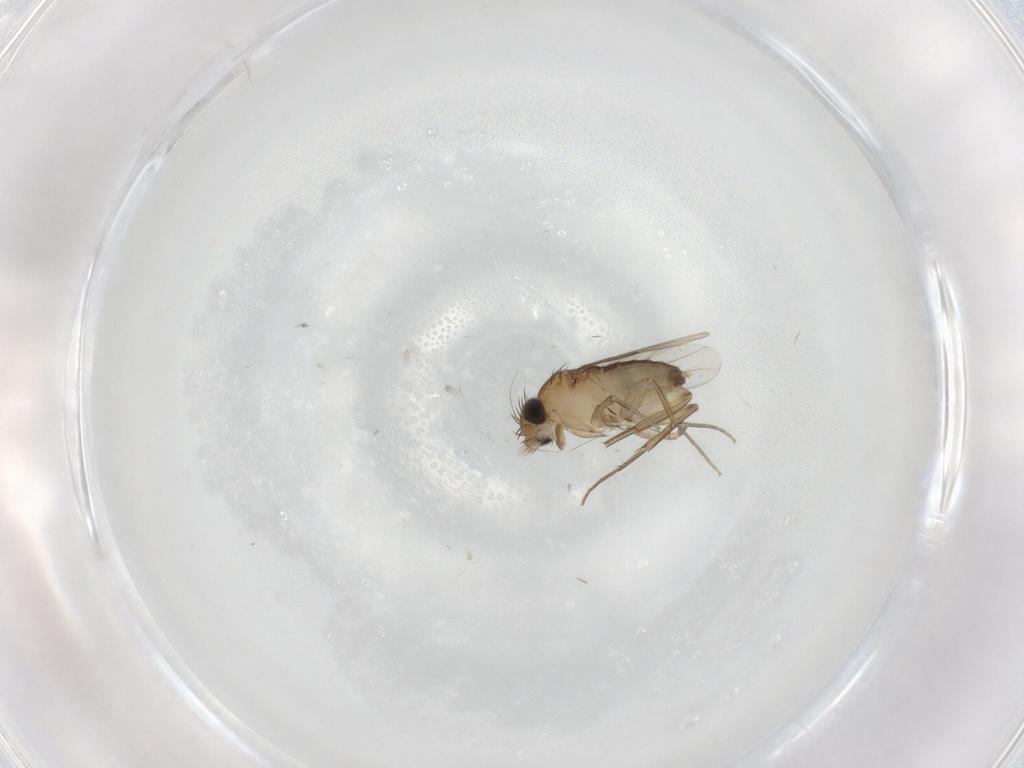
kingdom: Animalia
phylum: Arthropoda
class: Insecta
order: Diptera
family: Phoridae
